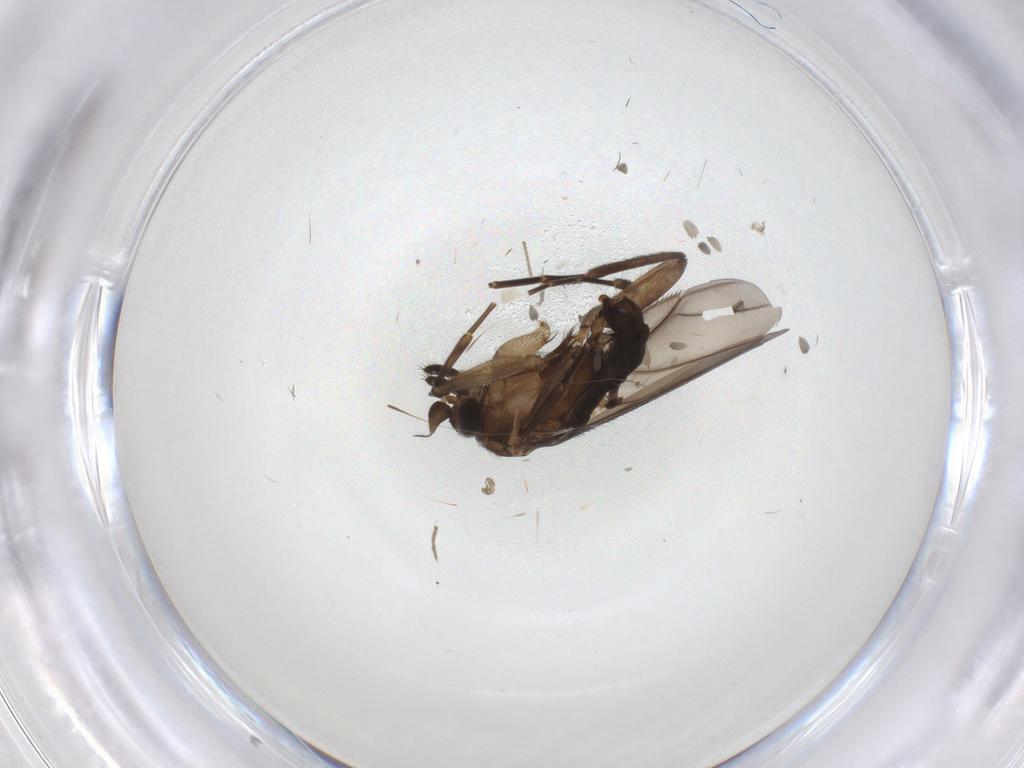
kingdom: Animalia
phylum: Arthropoda
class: Insecta
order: Diptera
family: Phoridae
